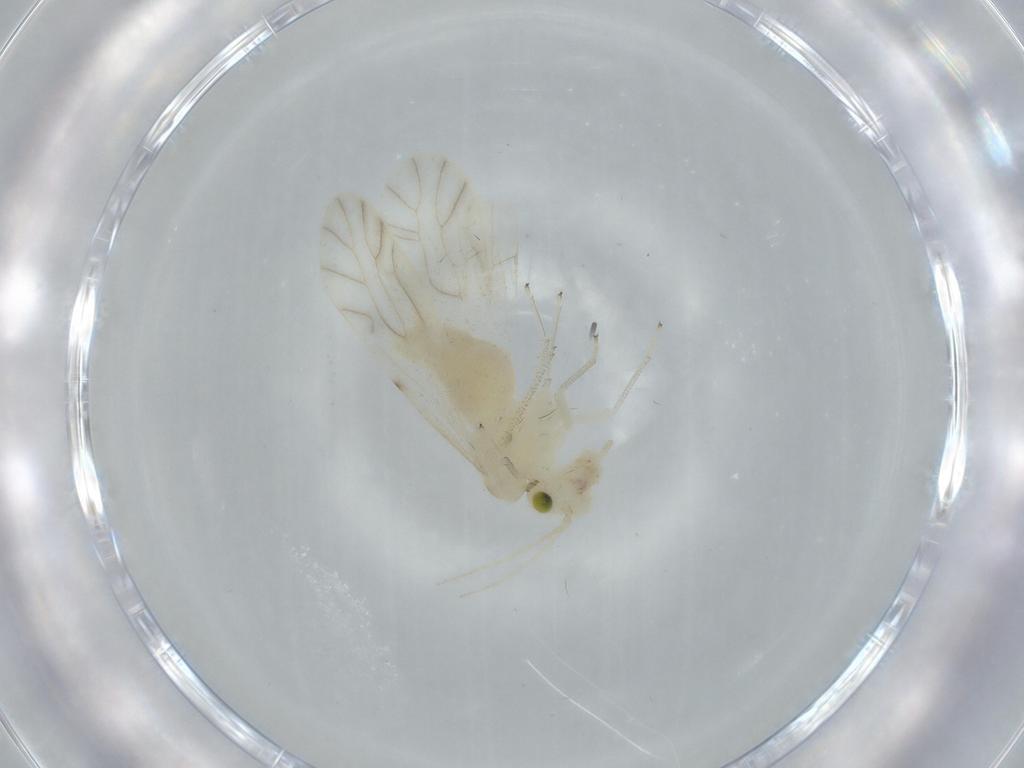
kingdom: Animalia
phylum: Arthropoda
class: Insecta
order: Psocodea
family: Caeciliusidae
